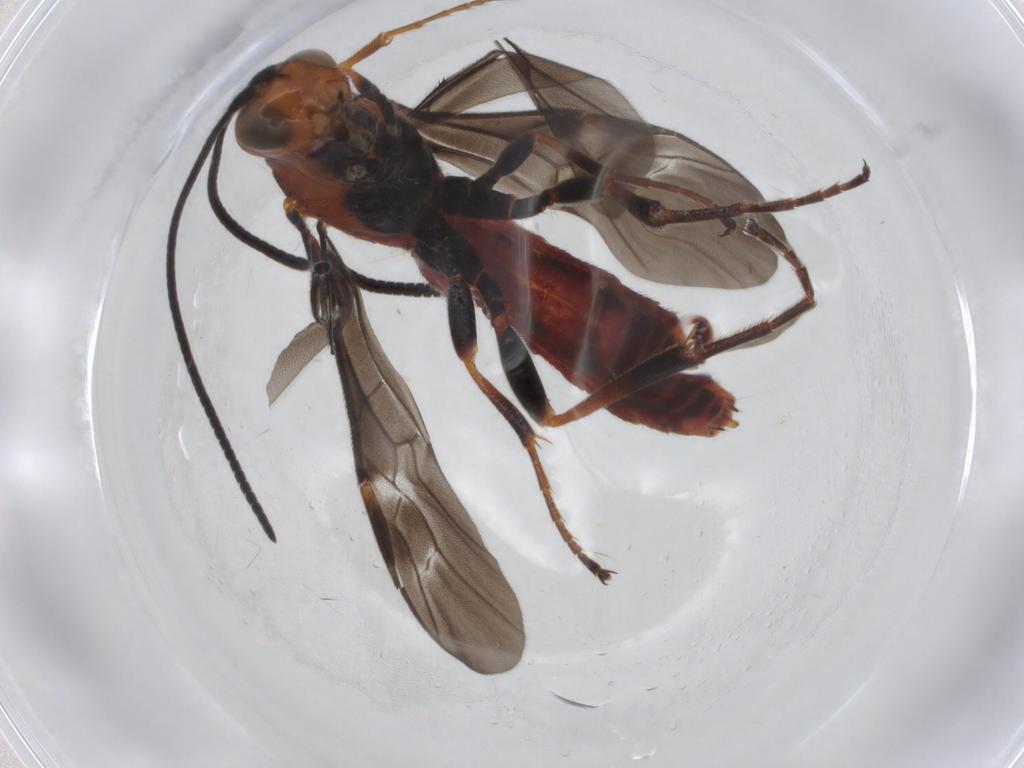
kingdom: Animalia
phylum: Arthropoda
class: Insecta
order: Hymenoptera
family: Braconidae
